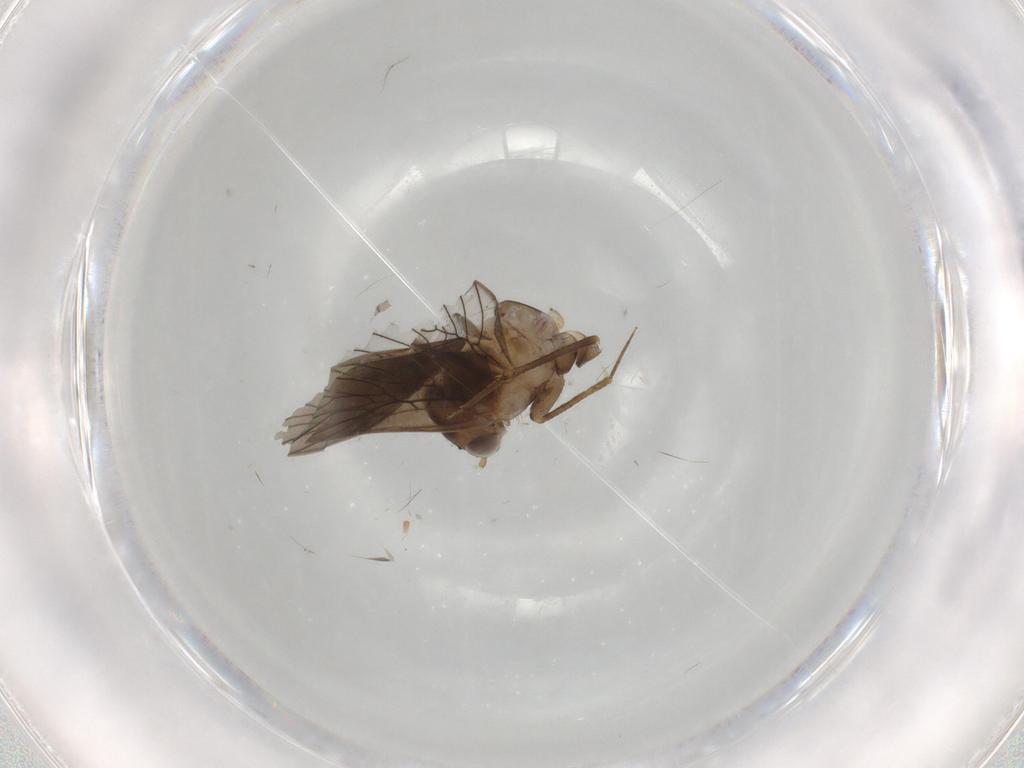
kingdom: Animalia
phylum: Arthropoda
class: Insecta
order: Psocodea
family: Lepidopsocidae
